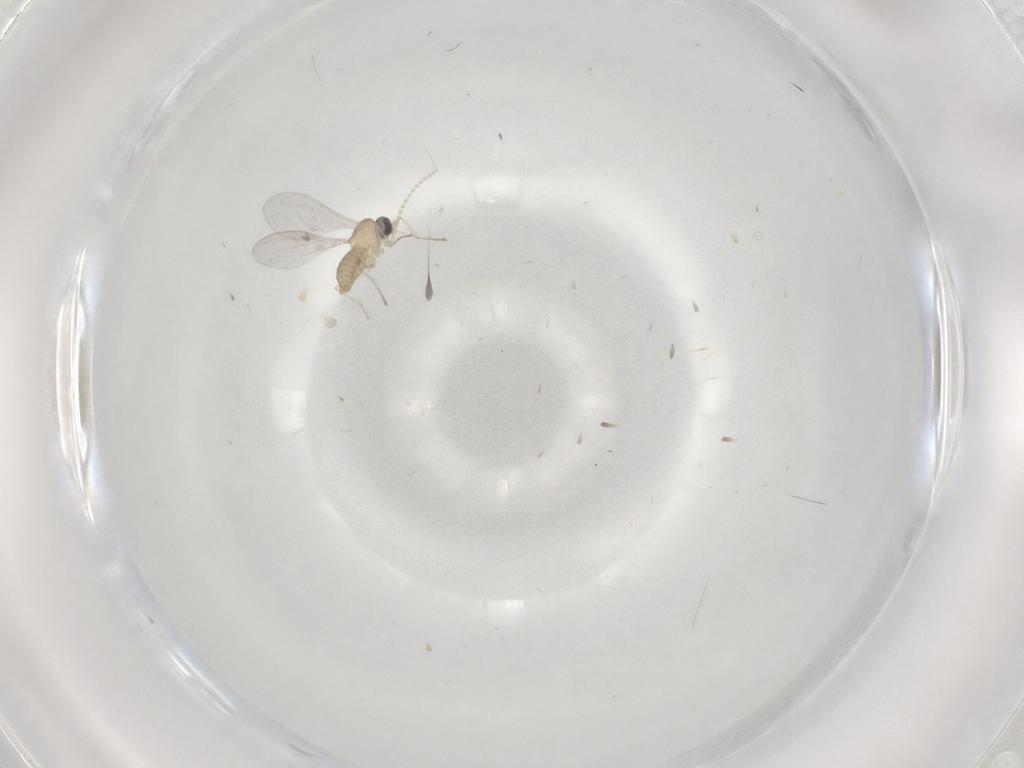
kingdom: Animalia
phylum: Arthropoda
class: Insecta
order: Diptera
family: Cecidomyiidae
